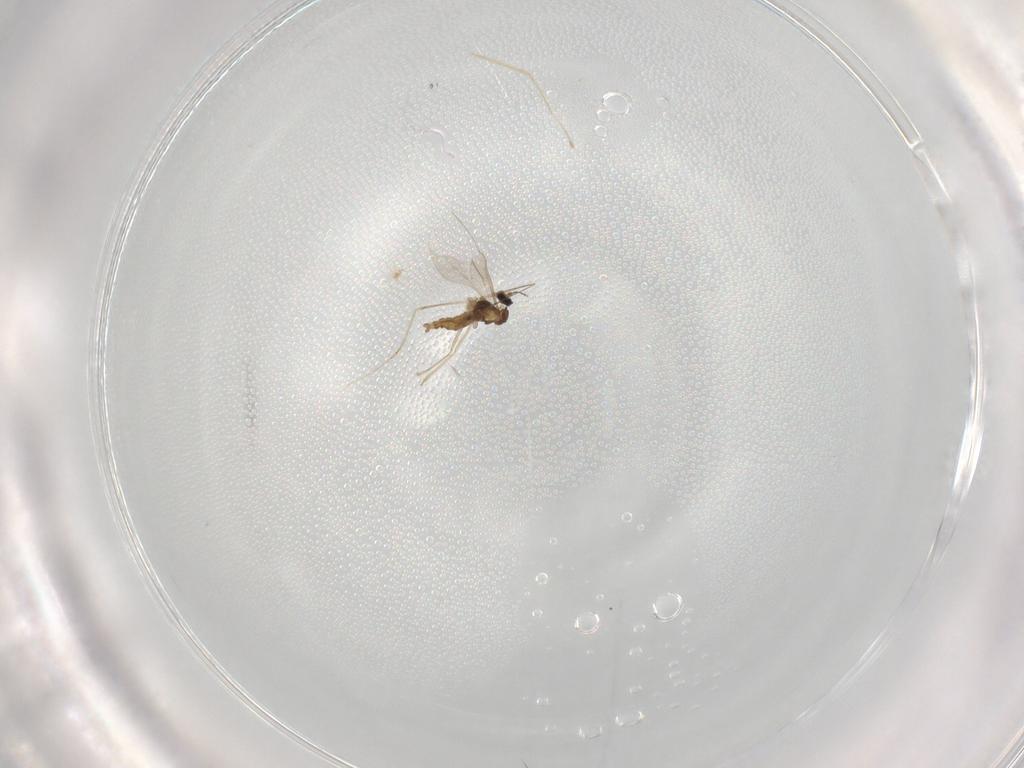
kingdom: Animalia
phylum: Arthropoda
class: Insecta
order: Diptera
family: Cecidomyiidae
